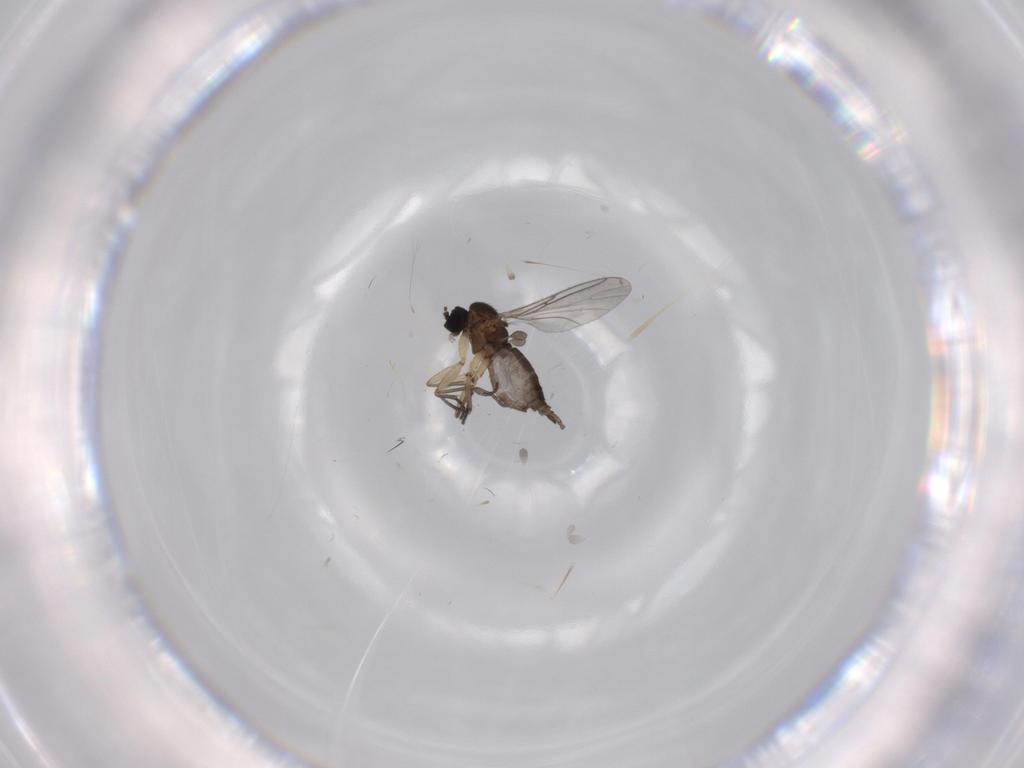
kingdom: Animalia
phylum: Arthropoda
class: Insecta
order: Diptera
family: Sciaridae
